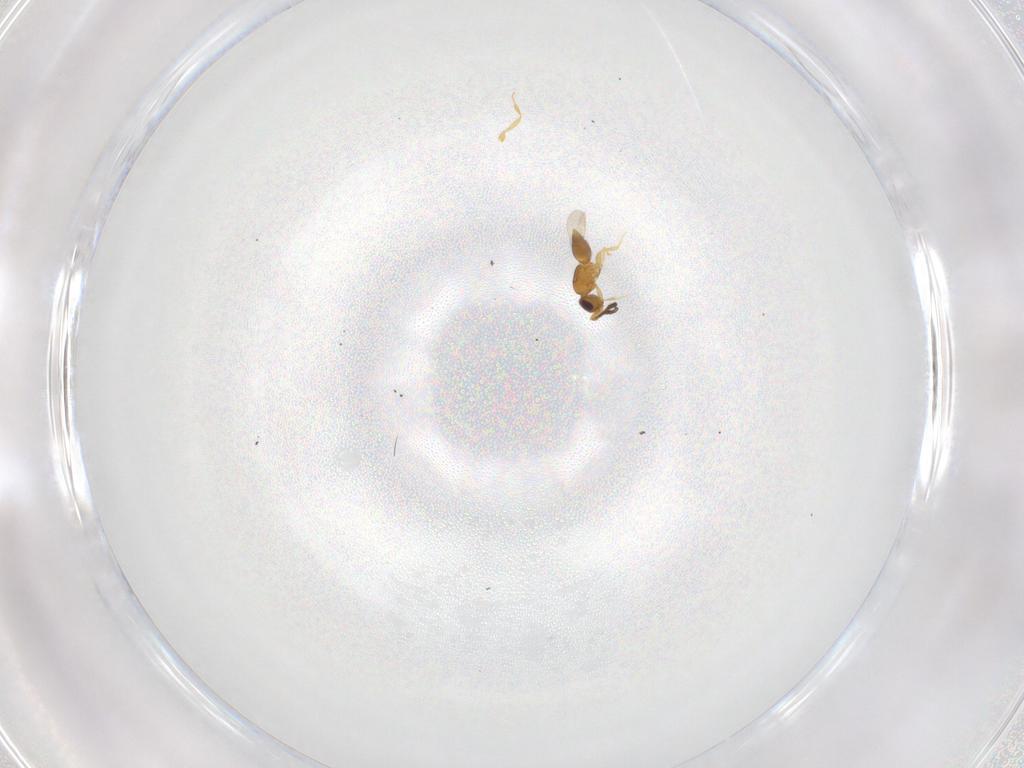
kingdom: Animalia
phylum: Arthropoda
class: Insecta
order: Hymenoptera
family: Ceraphronidae
